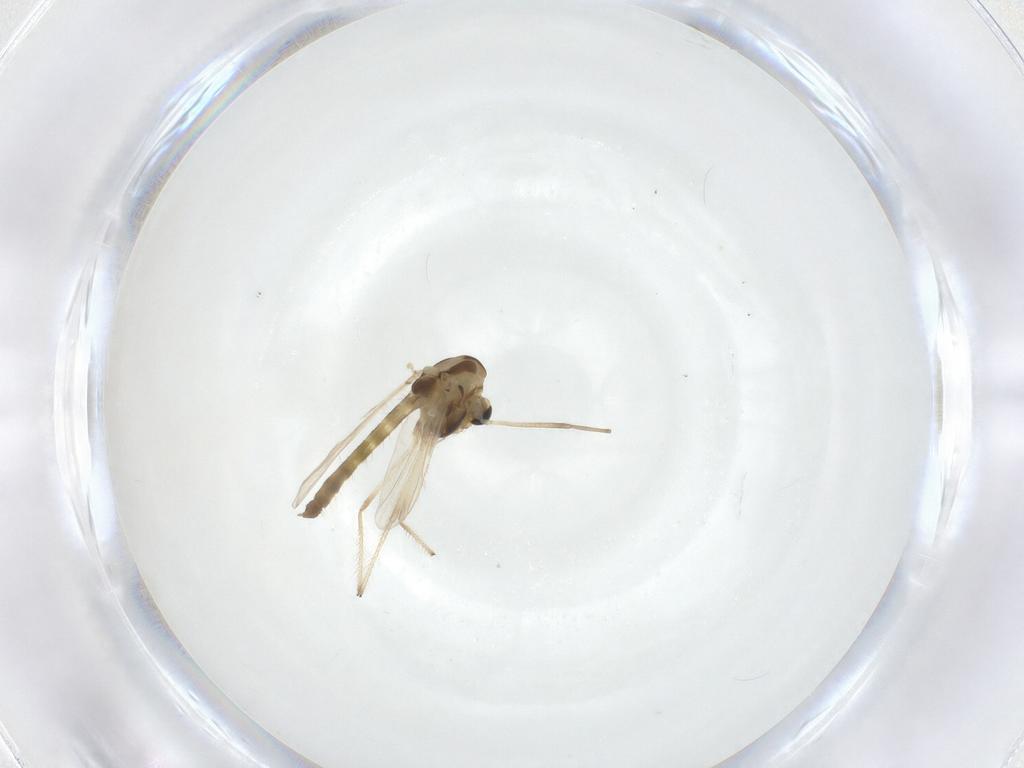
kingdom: Animalia
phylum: Arthropoda
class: Insecta
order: Diptera
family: Chironomidae
